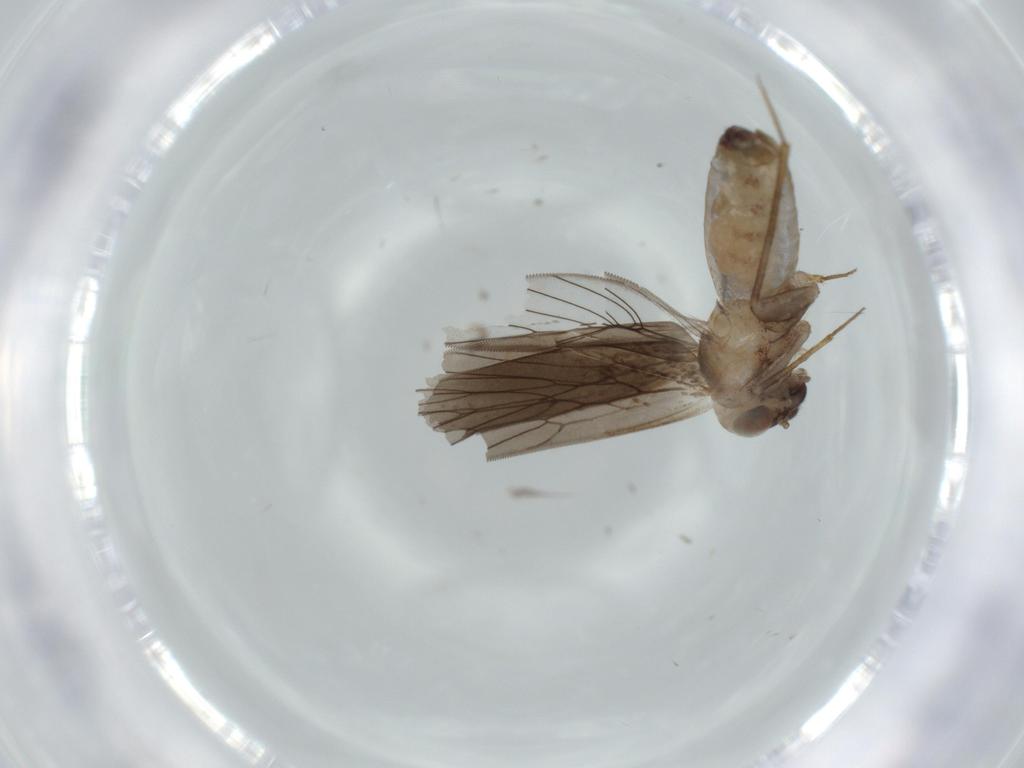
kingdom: Animalia
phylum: Arthropoda
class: Insecta
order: Psocodea
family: Lepidopsocidae
